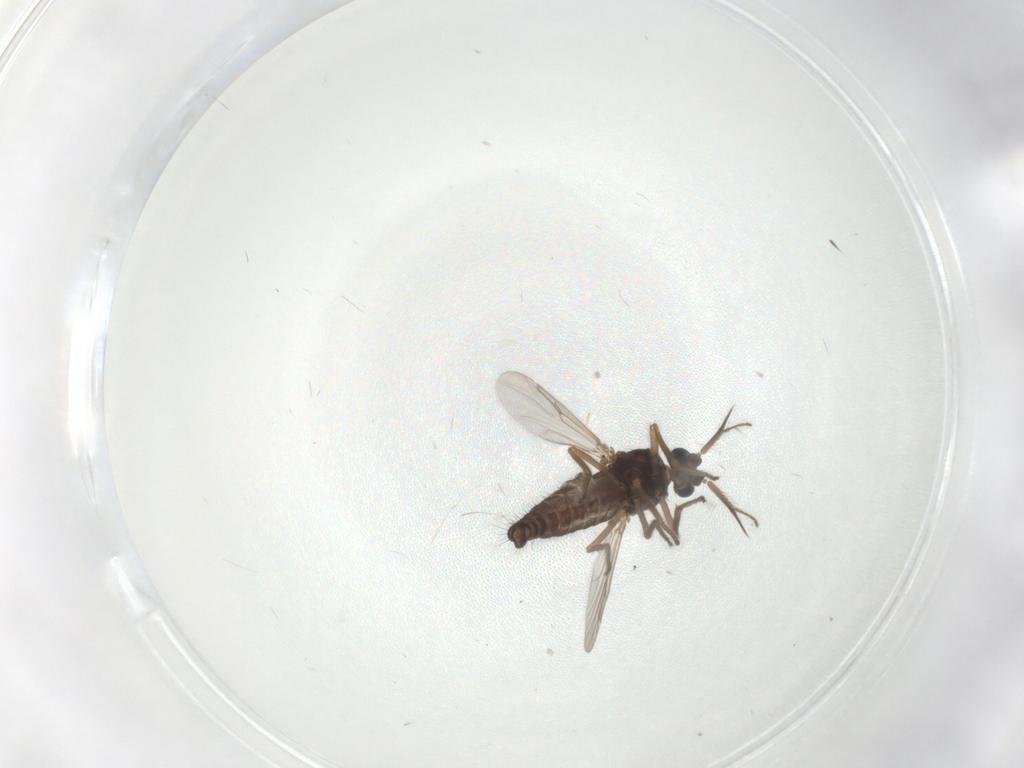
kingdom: Animalia
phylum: Arthropoda
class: Insecta
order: Diptera
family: Ceratopogonidae
